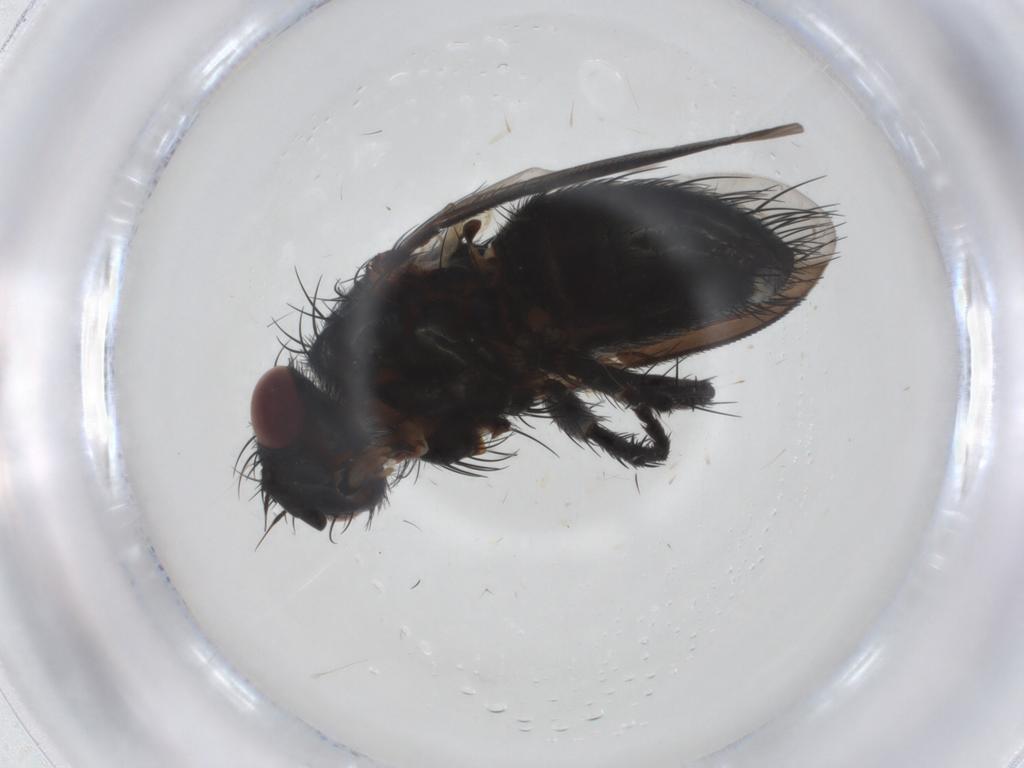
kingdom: Animalia
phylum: Arthropoda
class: Insecta
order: Diptera
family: Tachinidae
